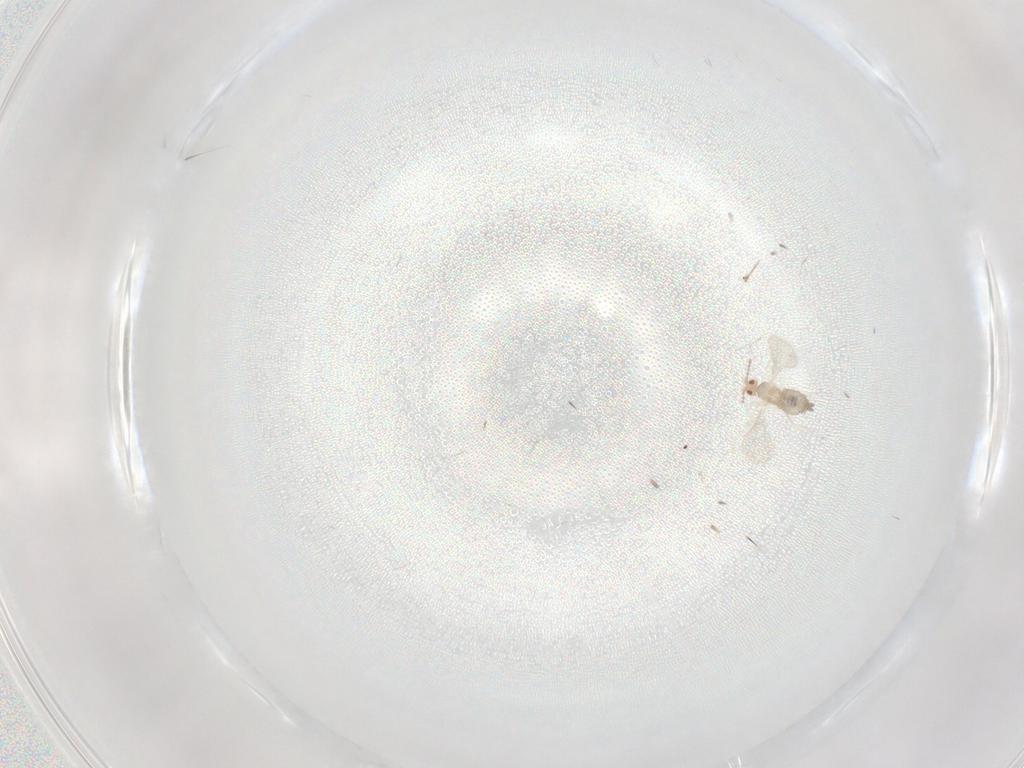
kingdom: Animalia
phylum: Arthropoda
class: Insecta
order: Diptera
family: Cecidomyiidae
